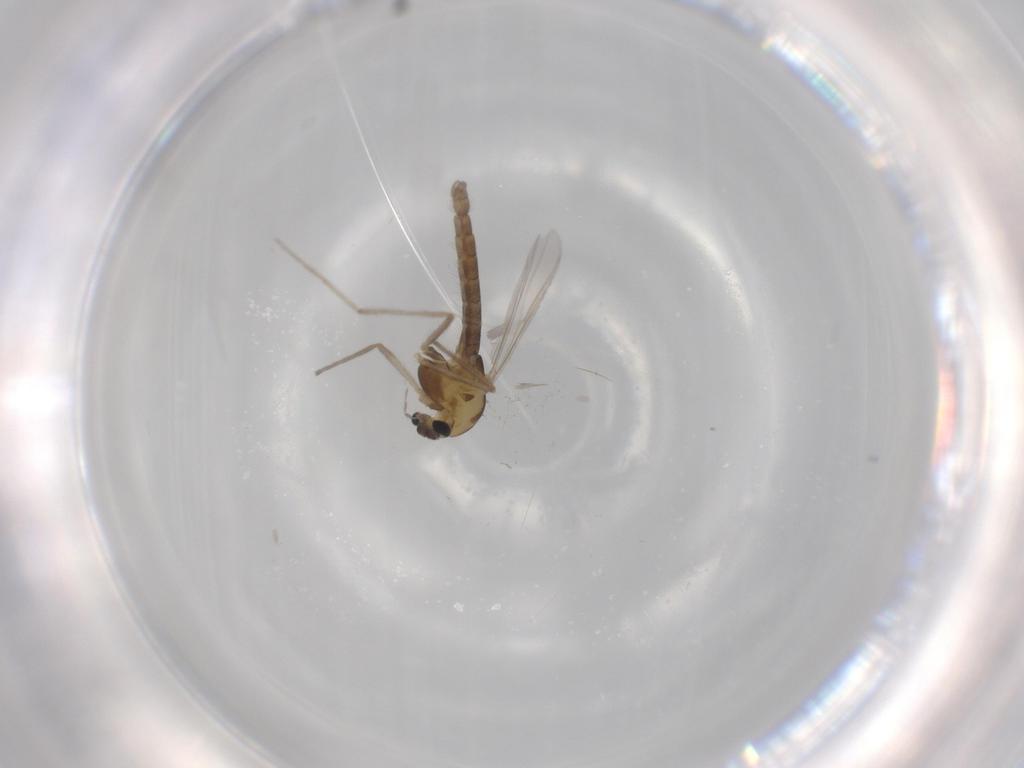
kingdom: Animalia
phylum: Arthropoda
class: Insecta
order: Diptera
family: Chironomidae
